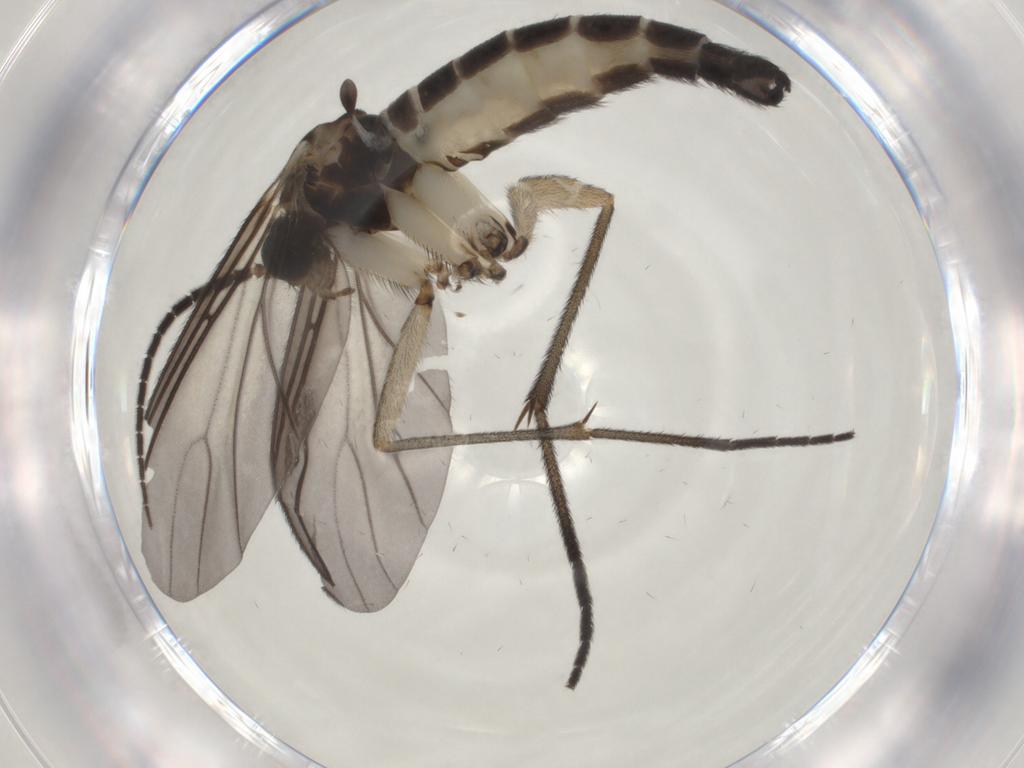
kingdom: Animalia
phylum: Arthropoda
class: Insecta
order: Diptera
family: Sciaridae
